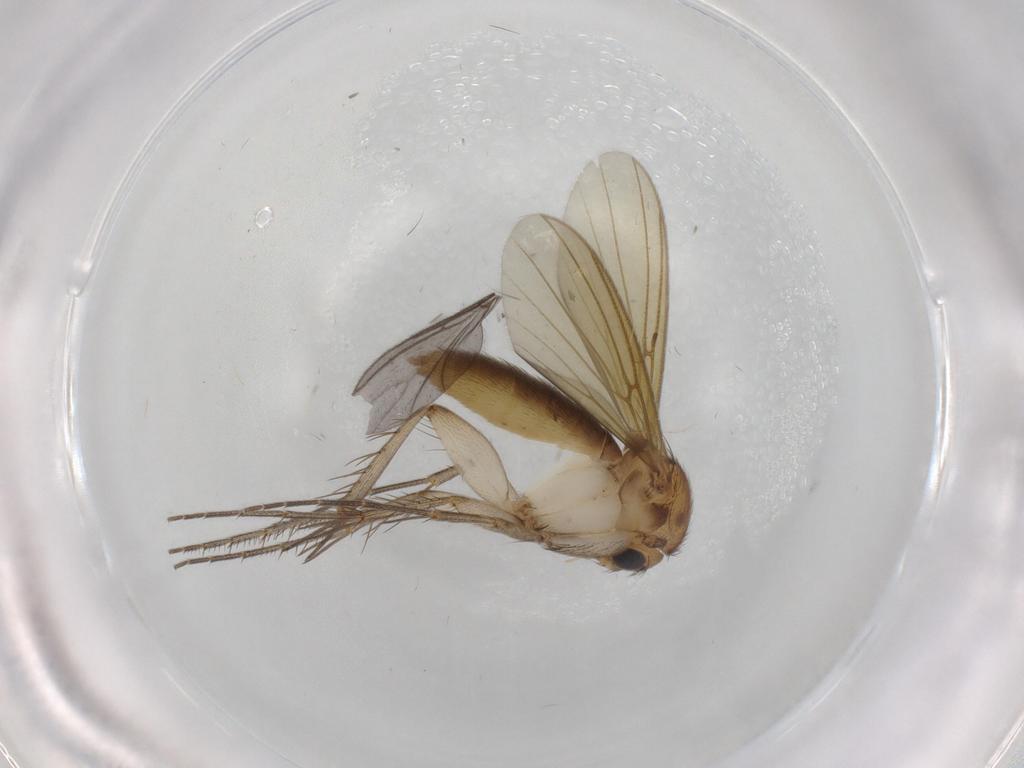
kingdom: Animalia
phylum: Arthropoda
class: Insecta
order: Diptera
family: Mycetophilidae
